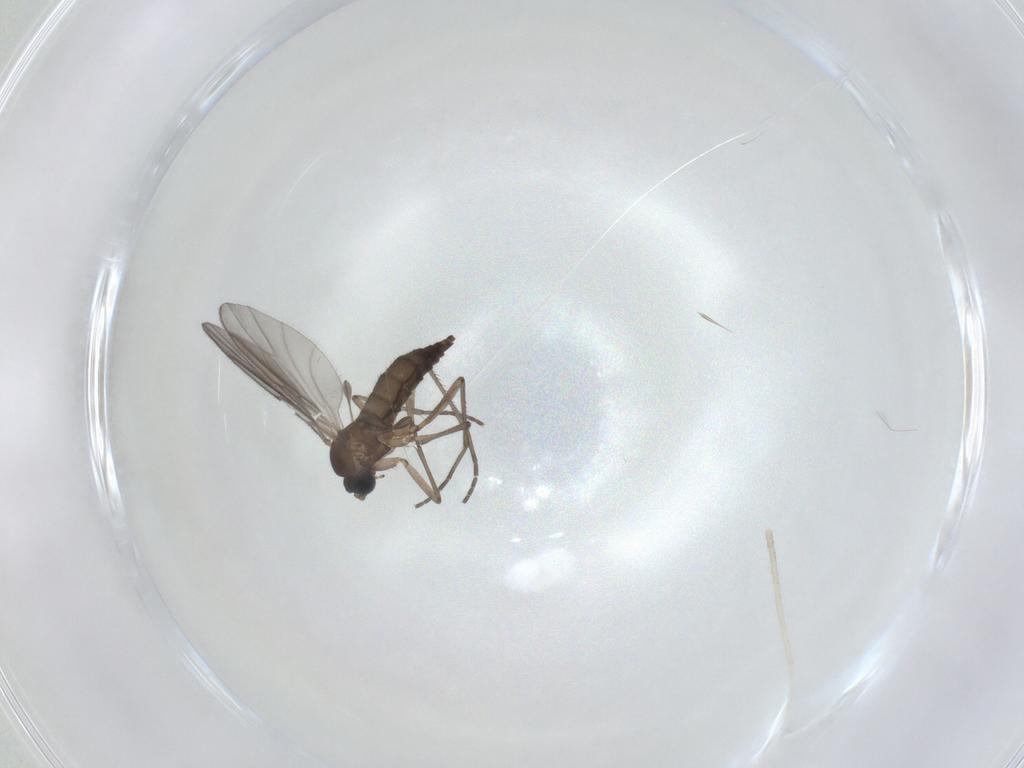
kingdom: Animalia
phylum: Arthropoda
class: Insecta
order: Diptera
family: Sciaridae
